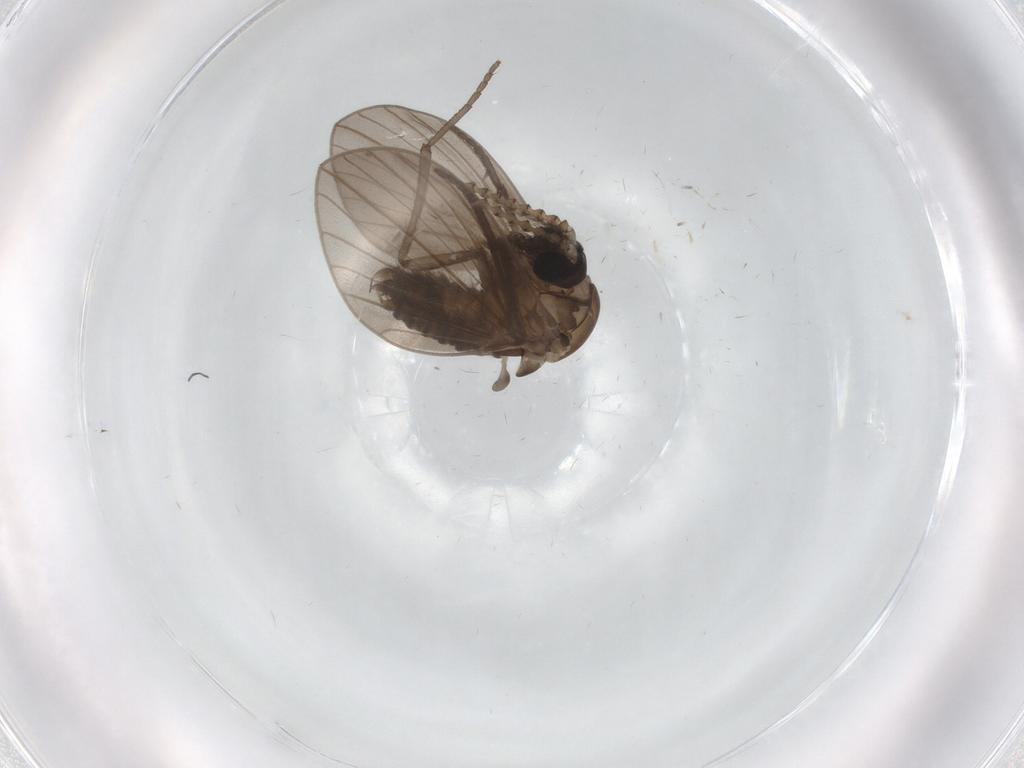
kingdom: Animalia
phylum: Arthropoda
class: Insecta
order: Diptera
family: Psychodidae
